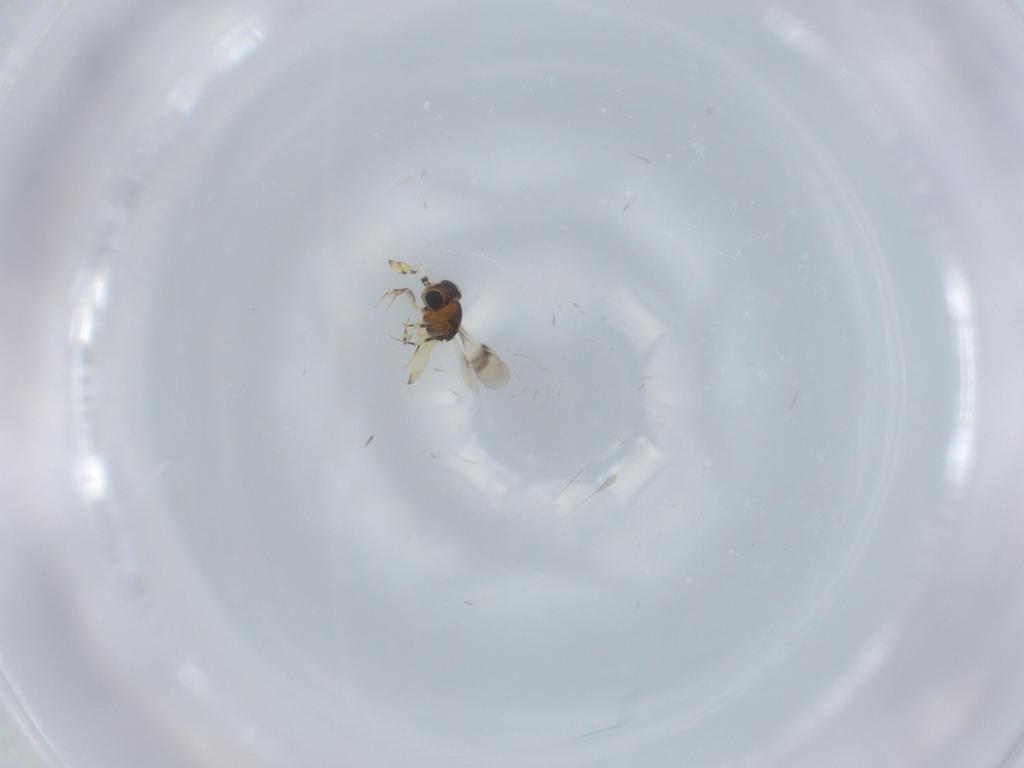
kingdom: Animalia
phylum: Arthropoda
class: Insecta
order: Hymenoptera
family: Scelionidae
